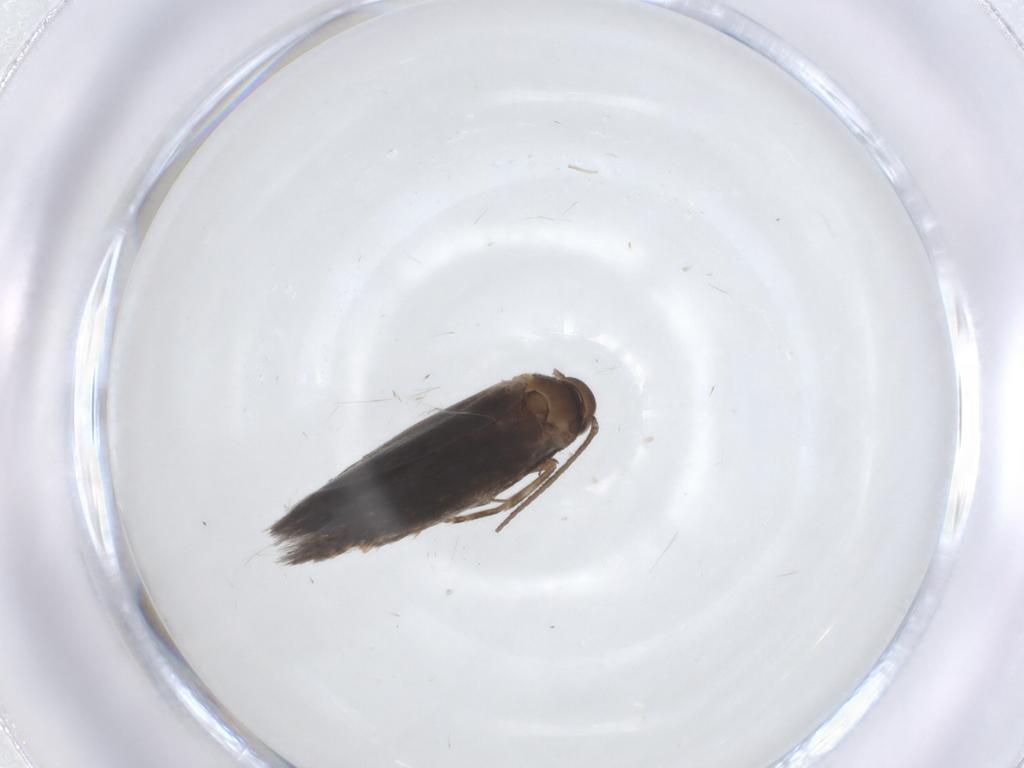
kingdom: Animalia
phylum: Arthropoda
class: Insecta
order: Lepidoptera
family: Elachistidae
